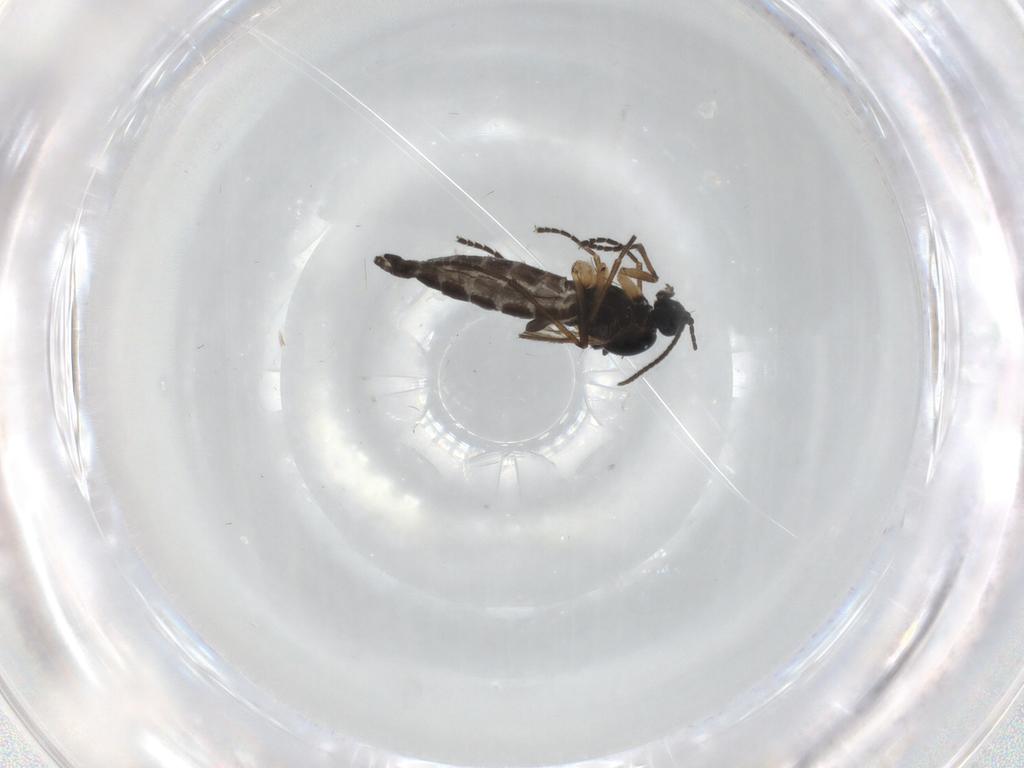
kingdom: Animalia
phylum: Arthropoda
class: Insecta
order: Diptera
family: Sciaridae
